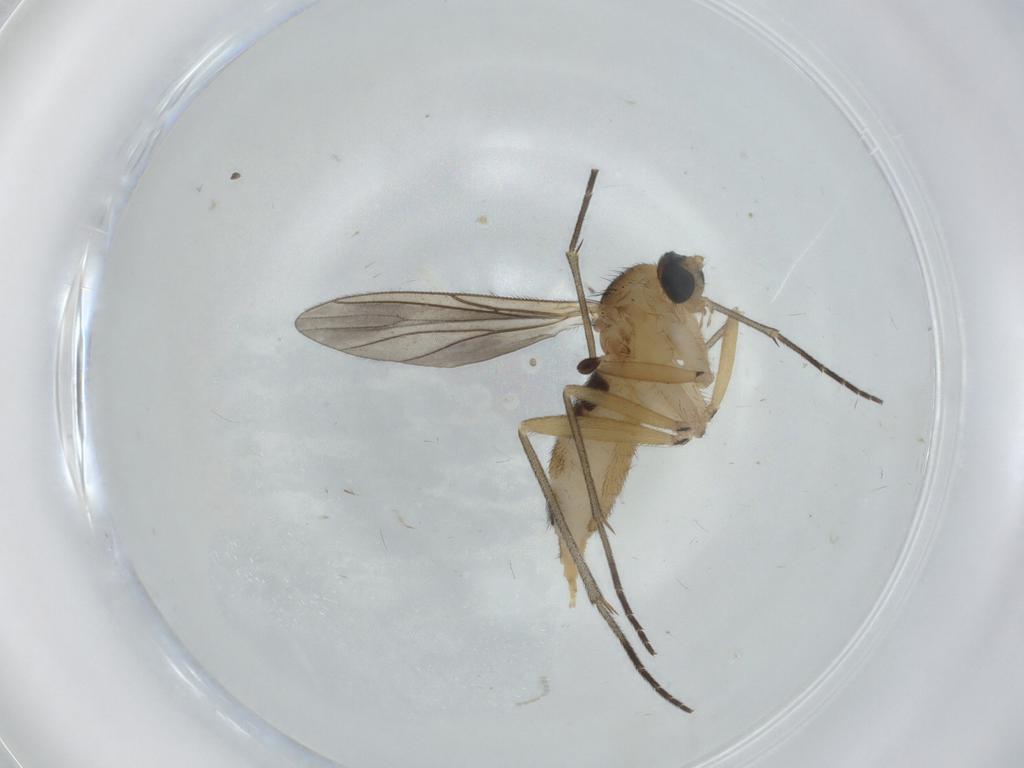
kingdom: Animalia
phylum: Arthropoda
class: Insecta
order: Diptera
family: Sciaridae
